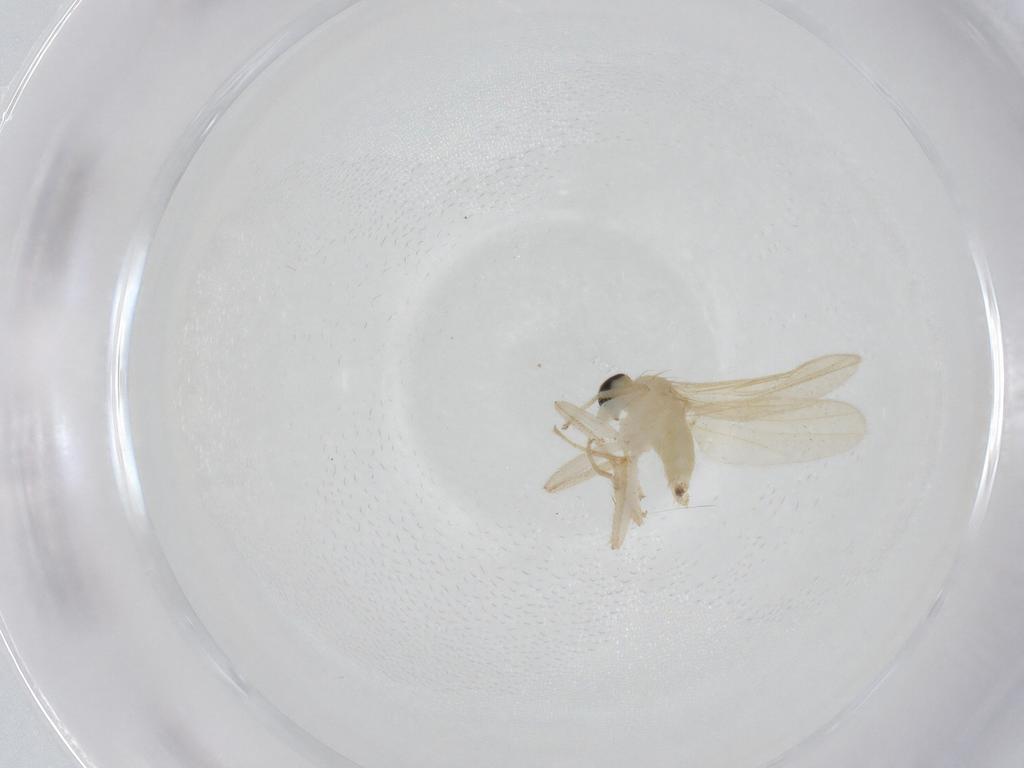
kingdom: Animalia
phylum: Arthropoda
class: Insecta
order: Diptera
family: Hybotidae
